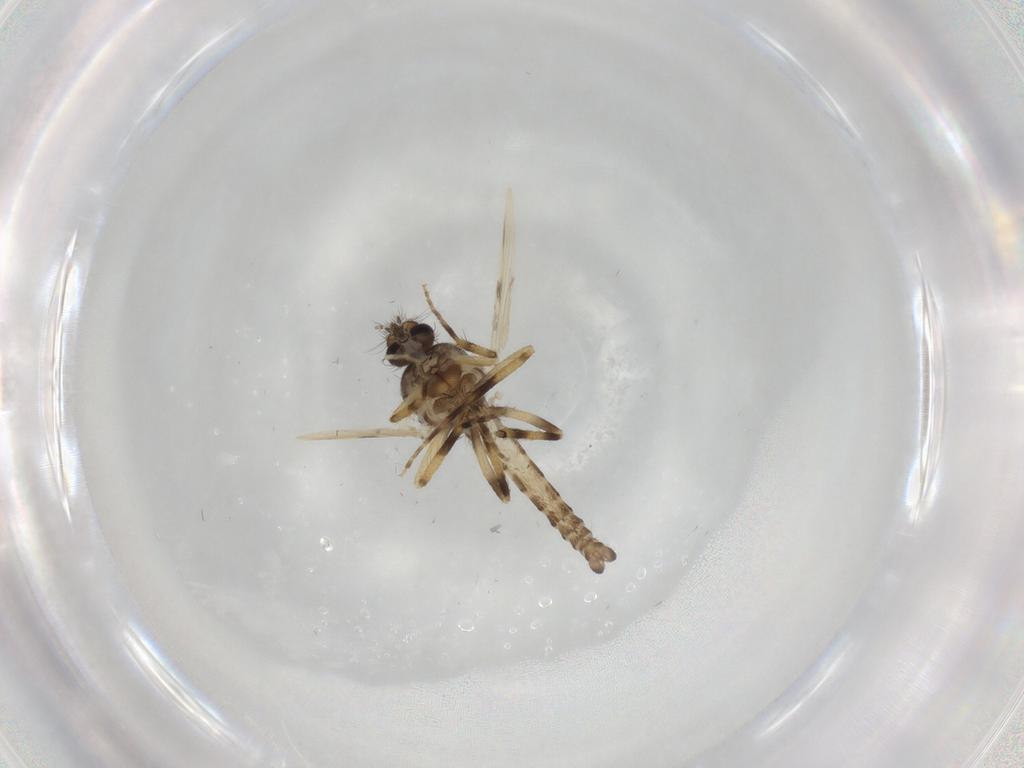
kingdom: Animalia
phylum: Arthropoda
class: Insecta
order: Diptera
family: Ceratopogonidae
